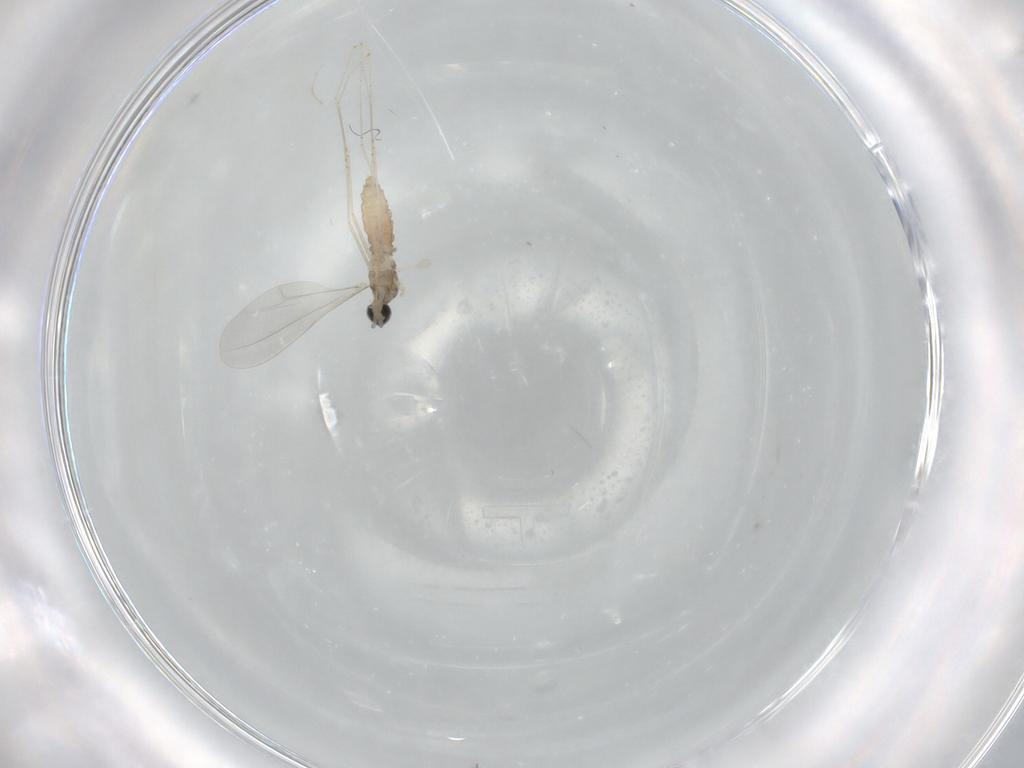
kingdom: Animalia
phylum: Arthropoda
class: Insecta
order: Diptera
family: Cecidomyiidae
